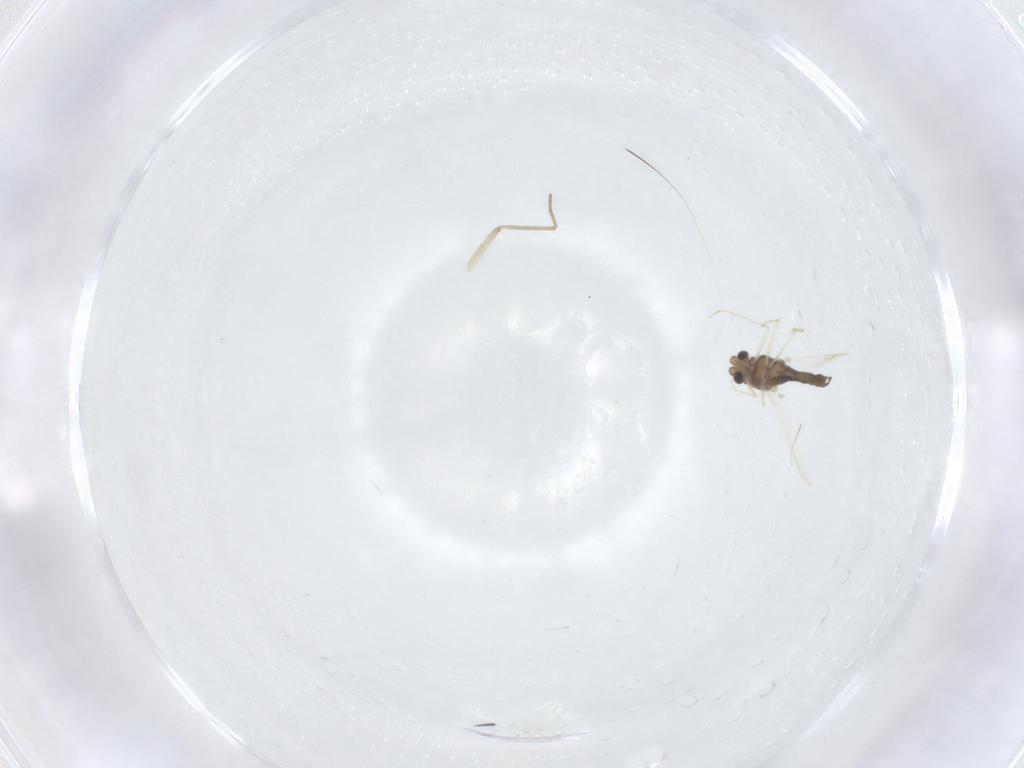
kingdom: Animalia
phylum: Arthropoda
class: Insecta
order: Diptera
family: Chironomidae
